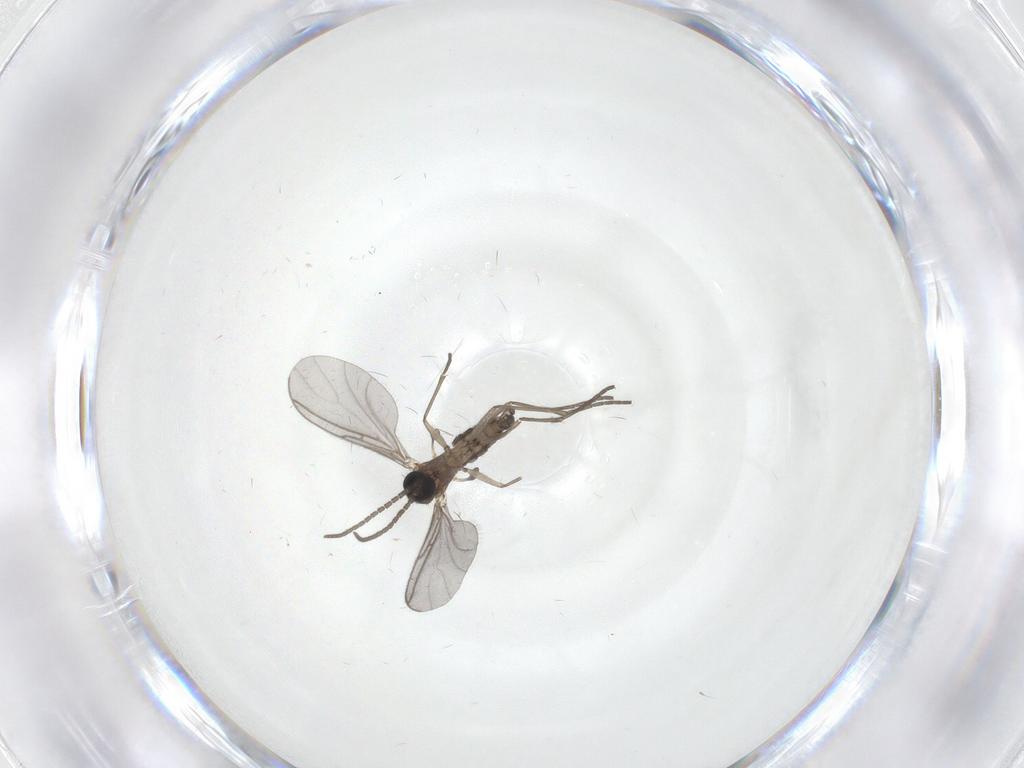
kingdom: Animalia
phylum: Arthropoda
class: Insecta
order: Diptera
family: Sciaridae
